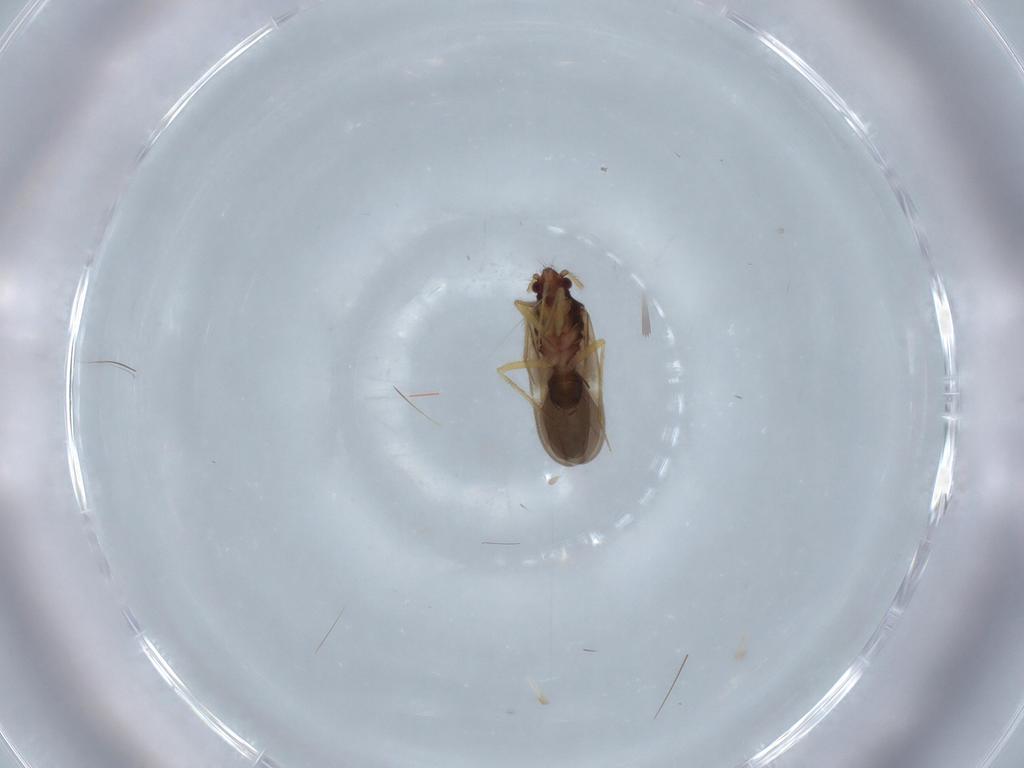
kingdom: Animalia
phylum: Arthropoda
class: Insecta
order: Hemiptera
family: Ceratocombidae
